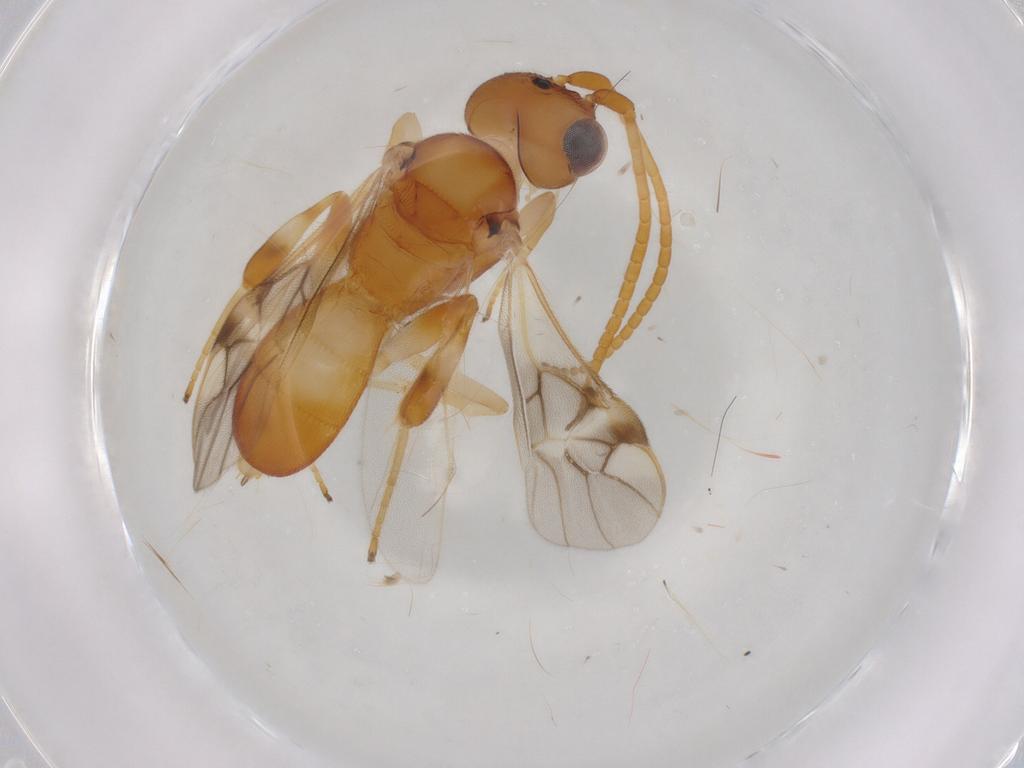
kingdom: Animalia
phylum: Arthropoda
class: Insecta
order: Hymenoptera
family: Braconidae
